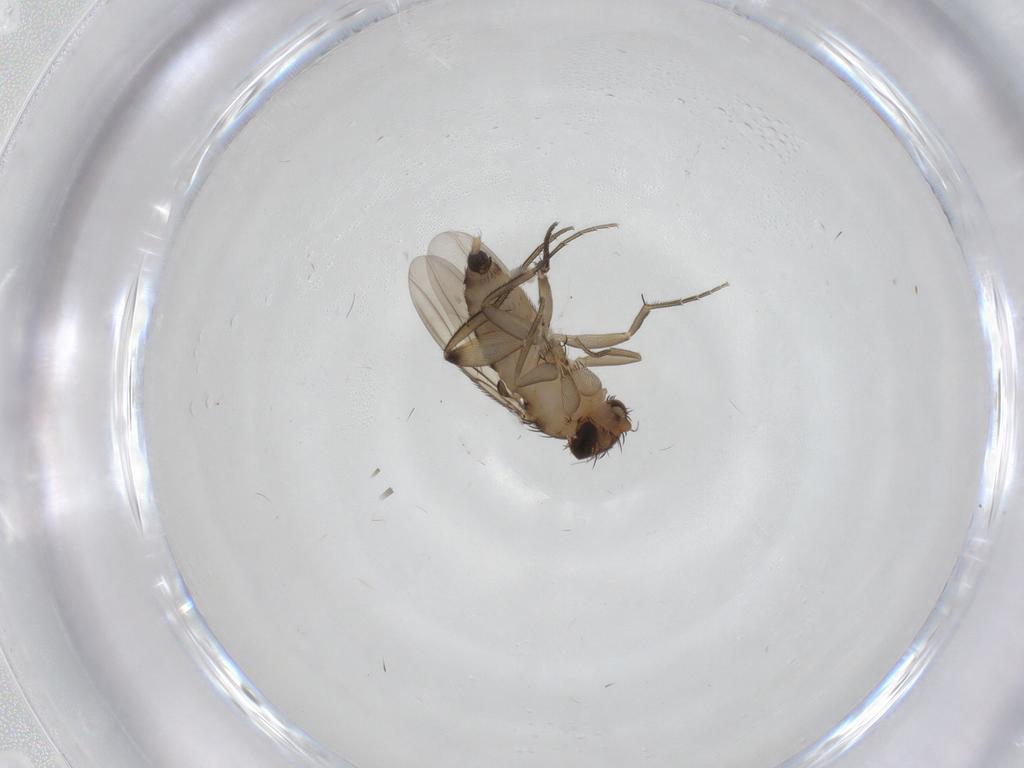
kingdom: Animalia
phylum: Arthropoda
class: Insecta
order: Diptera
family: Phoridae
